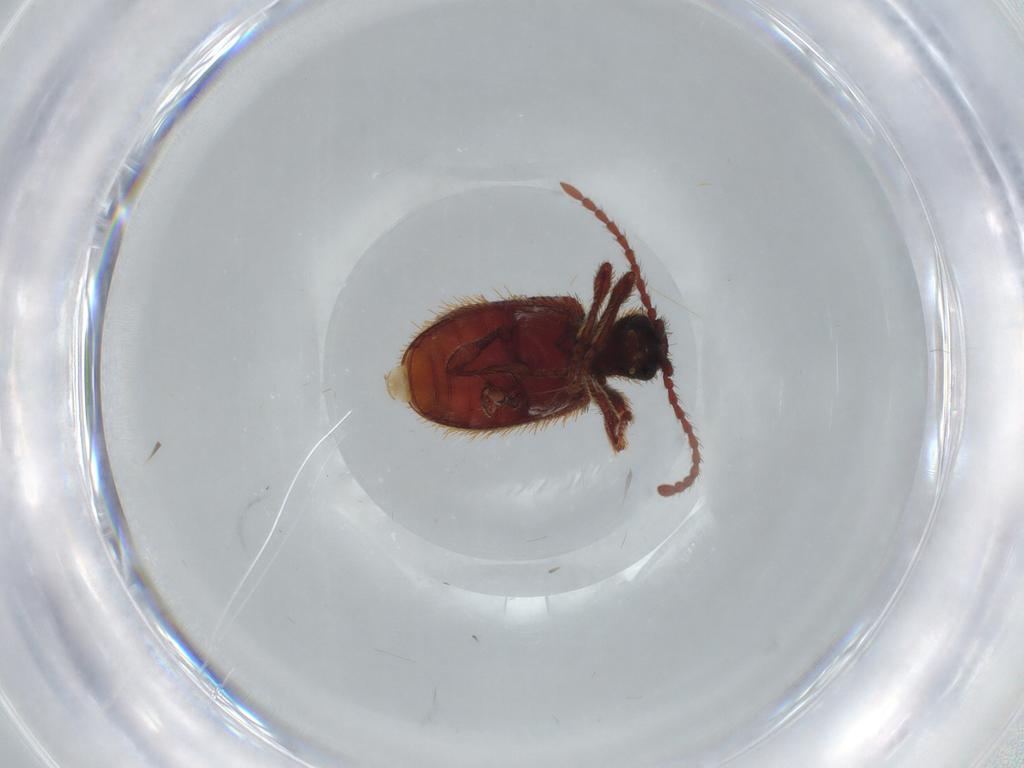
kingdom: Animalia
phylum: Arthropoda
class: Insecta
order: Coleoptera
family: Ptinidae
